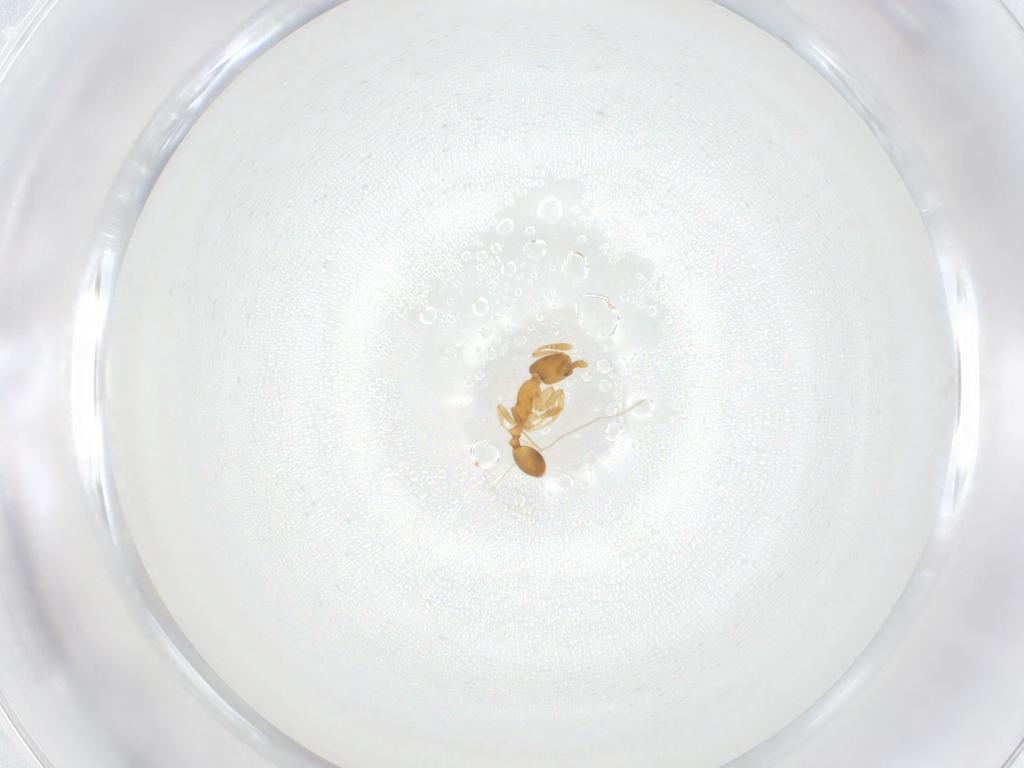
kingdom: Animalia
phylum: Arthropoda
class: Insecta
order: Hymenoptera
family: Formicidae
